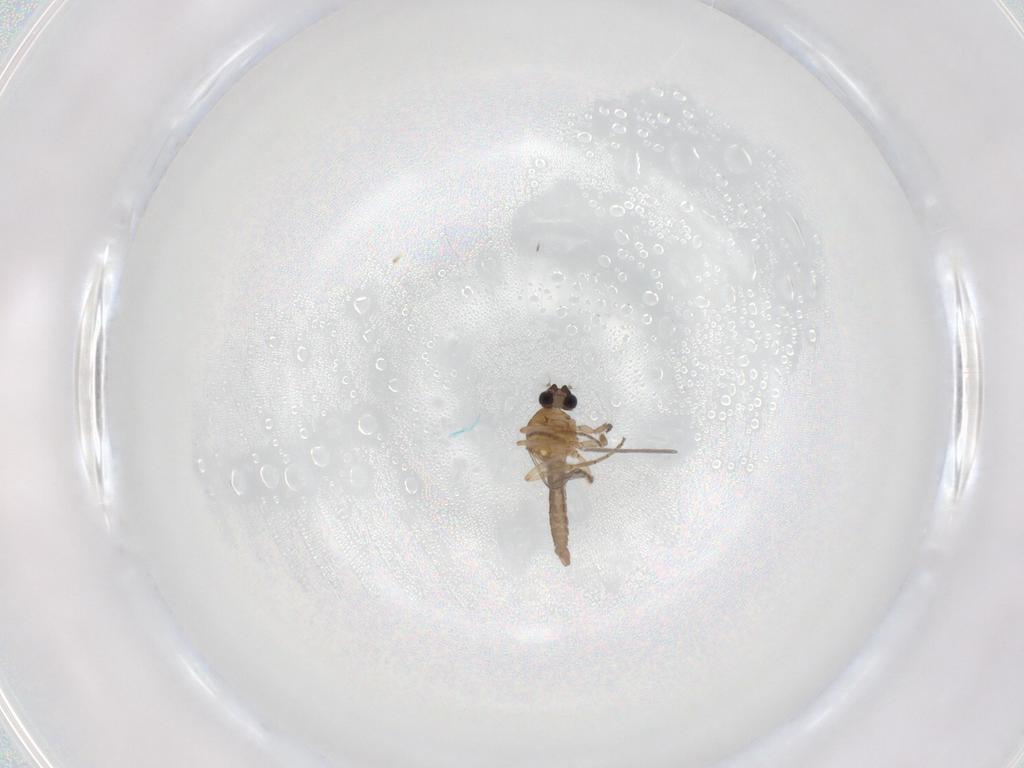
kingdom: Animalia
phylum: Arthropoda
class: Insecta
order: Diptera
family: Ceratopogonidae
